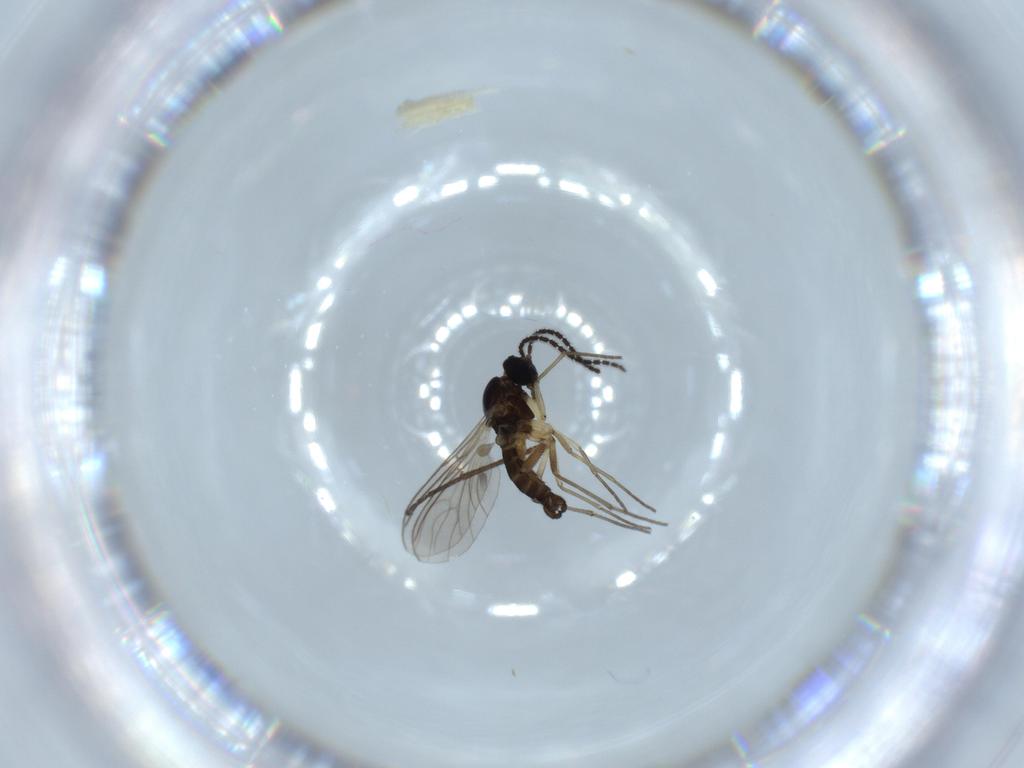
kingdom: Animalia
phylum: Arthropoda
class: Insecta
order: Diptera
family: Sciaridae
